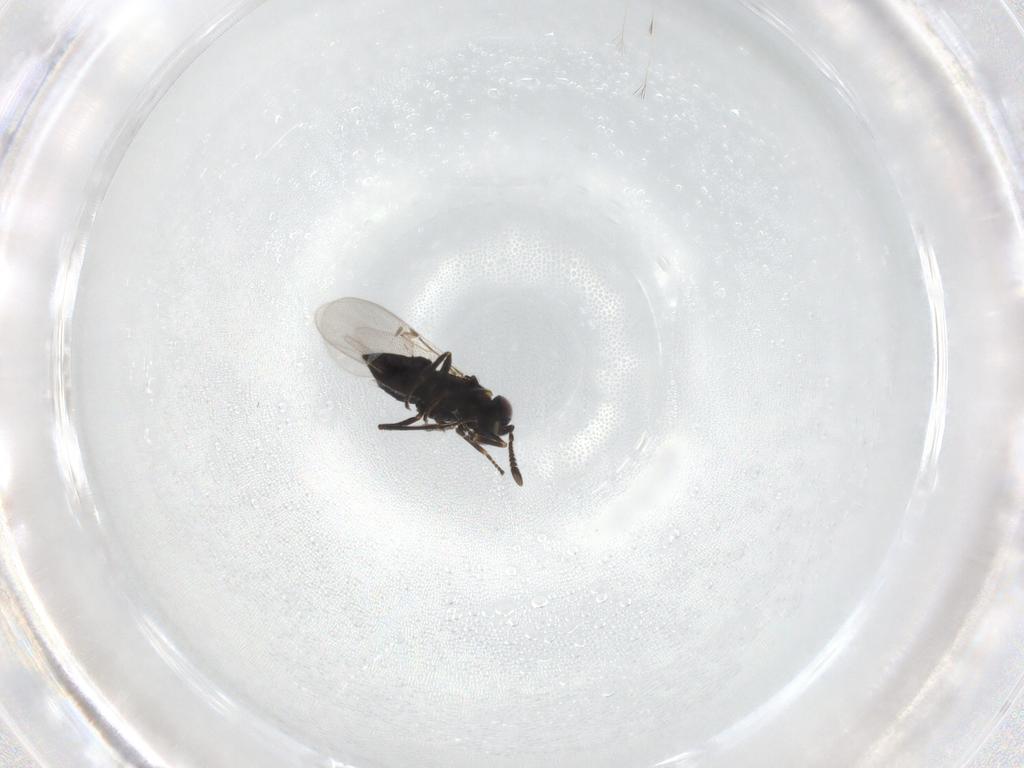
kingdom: Animalia
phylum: Arthropoda
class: Insecta
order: Hymenoptera
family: Encyrtidae
